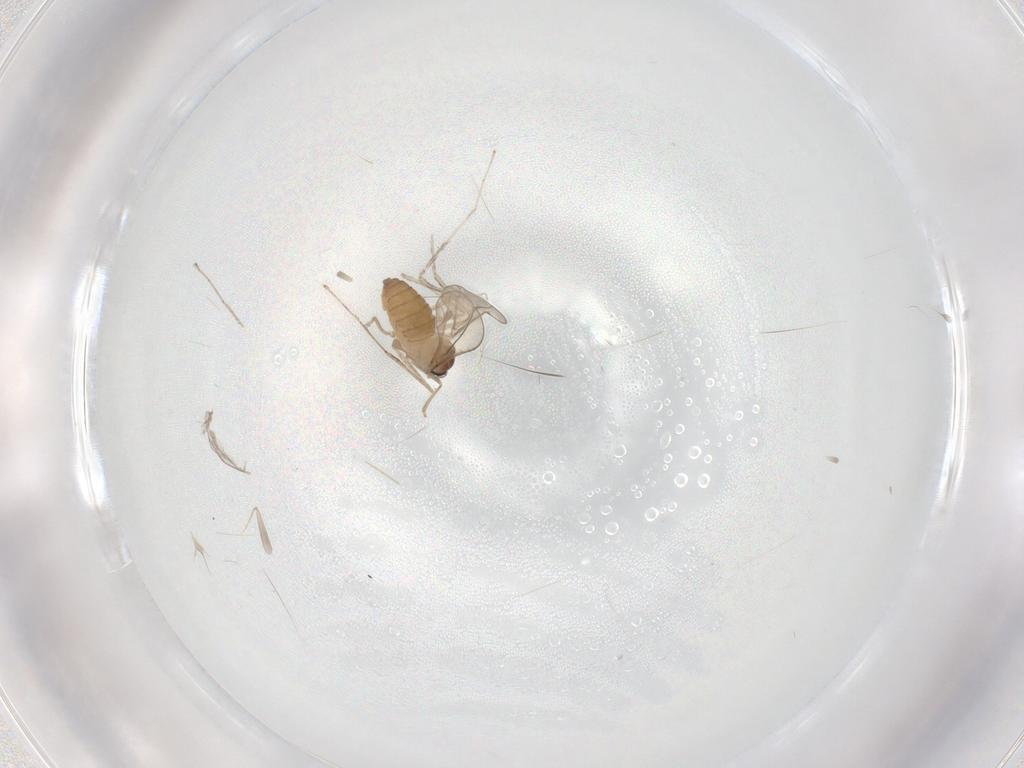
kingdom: Animalia
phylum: Arthropoda
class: Insecta
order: Diptera
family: Cecidomyiidae
